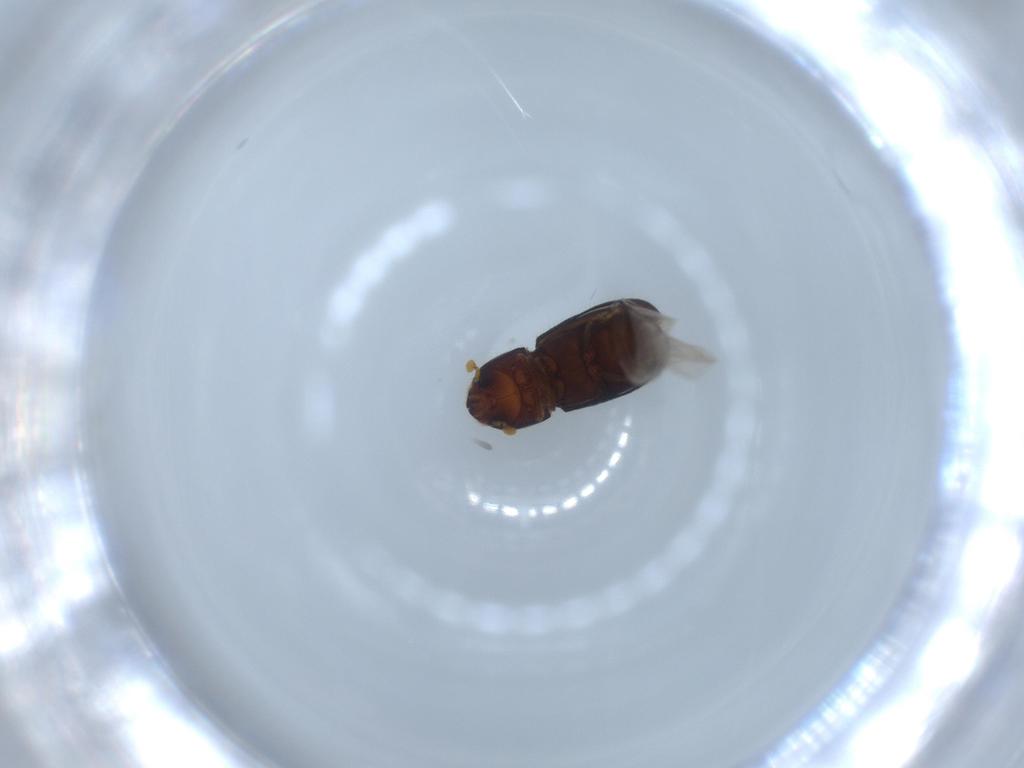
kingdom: Animalia
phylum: Arthropoda
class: Insecta
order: Coleoptera
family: Curculionidae
